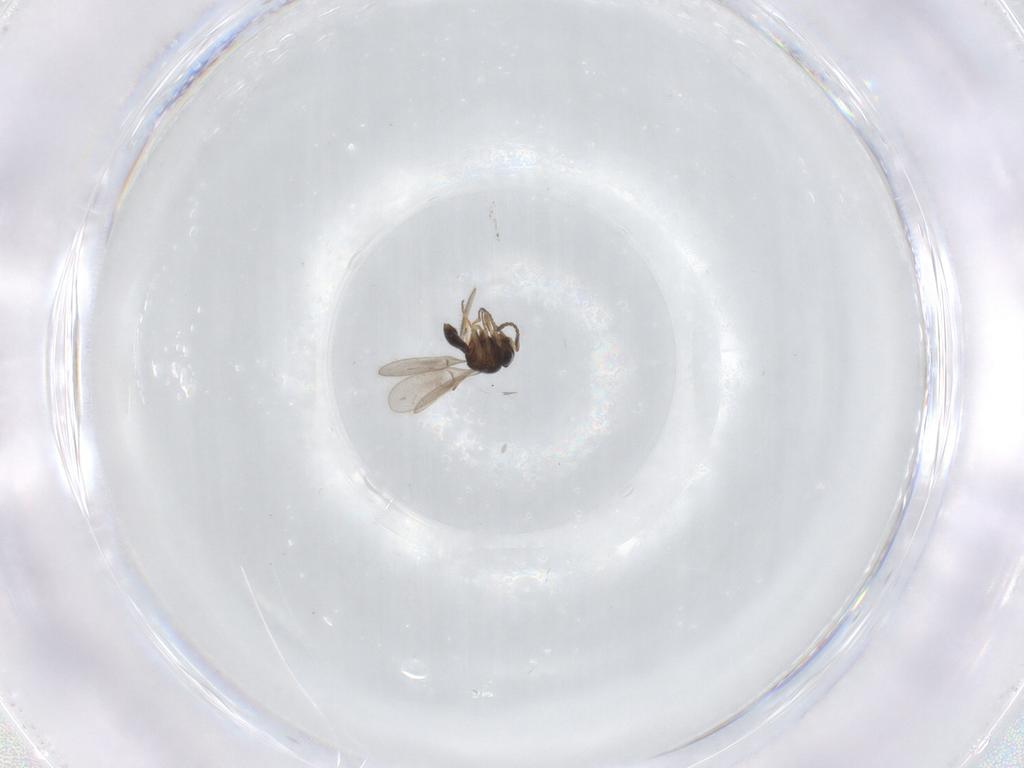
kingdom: Animalia
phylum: Arthropoda
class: Insecta
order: Hymenoptera
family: Scelionidae
